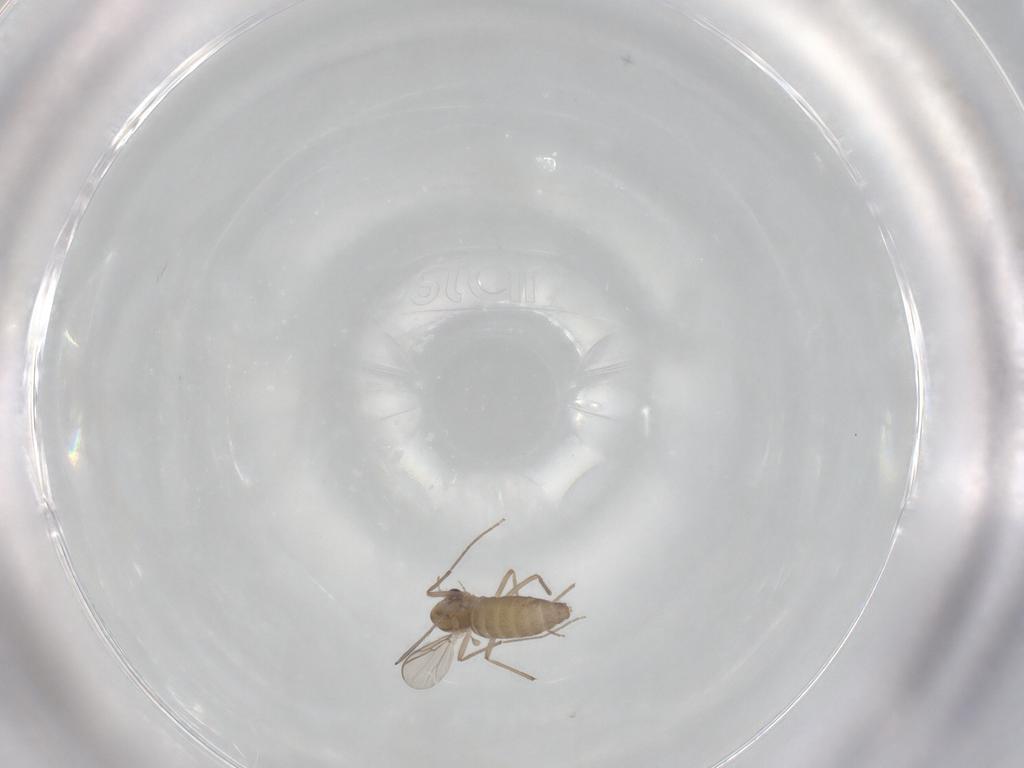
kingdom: Animalia
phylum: Arthropoda
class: Insecta
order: Diptera
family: Chironomidae
